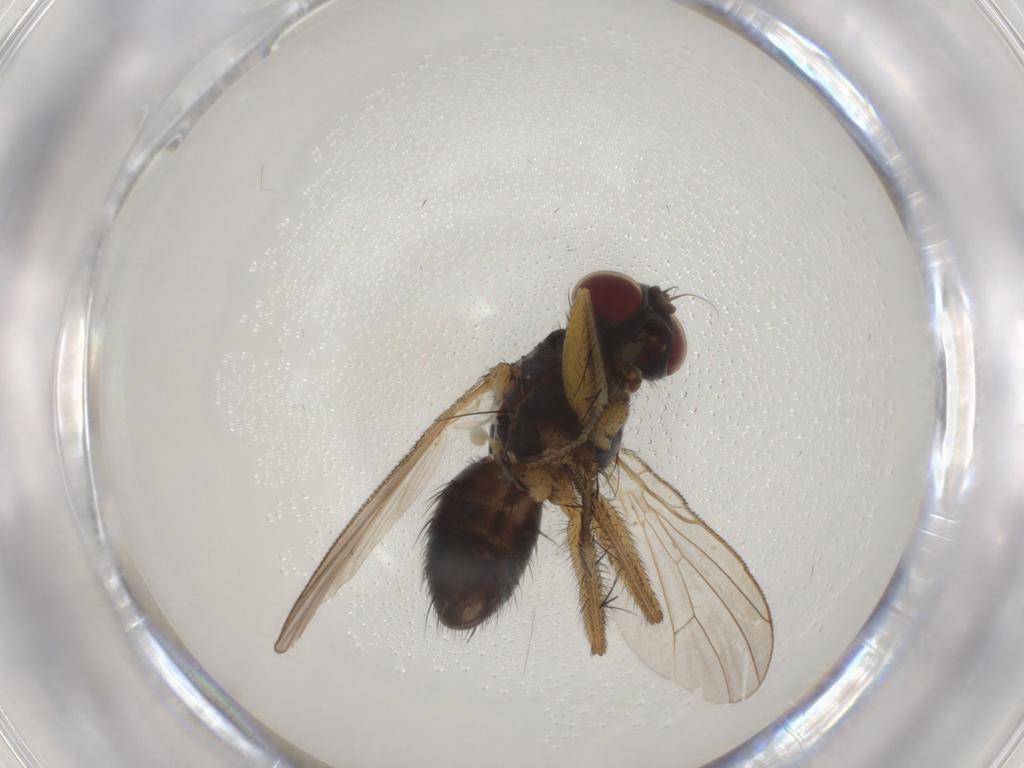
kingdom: Animalia
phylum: Arthropoda
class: Insecta
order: Diptera
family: Muscidae
